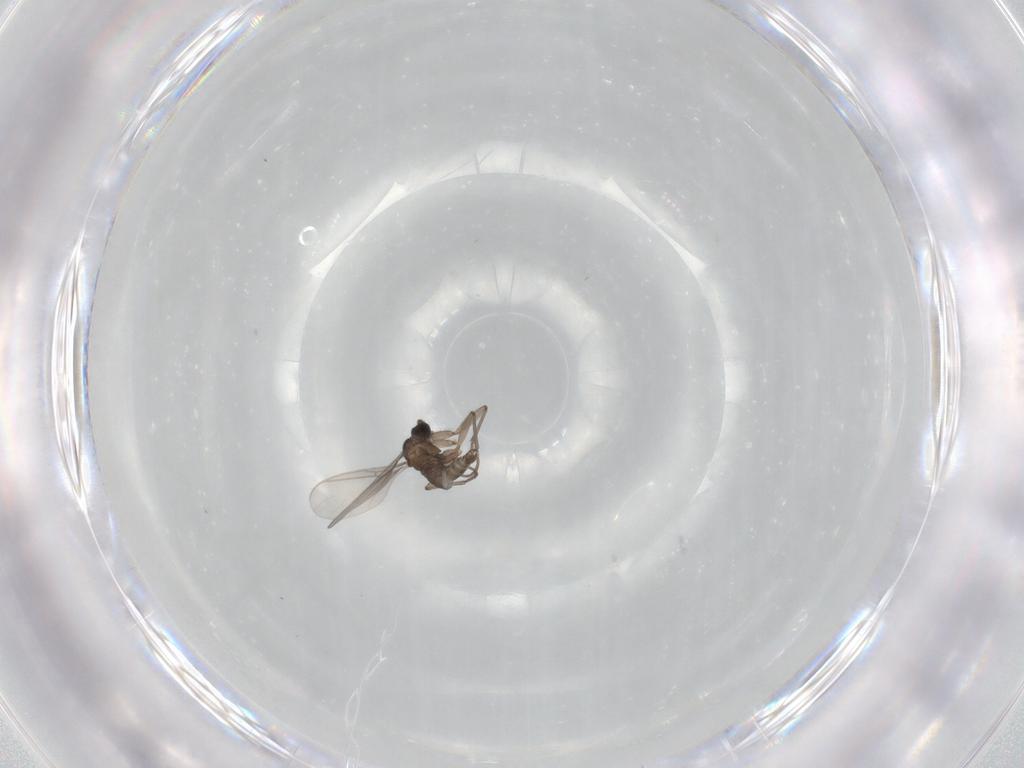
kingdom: Animalia
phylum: Arthropoda
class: Insecta
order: Diptera
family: Sciaridae
